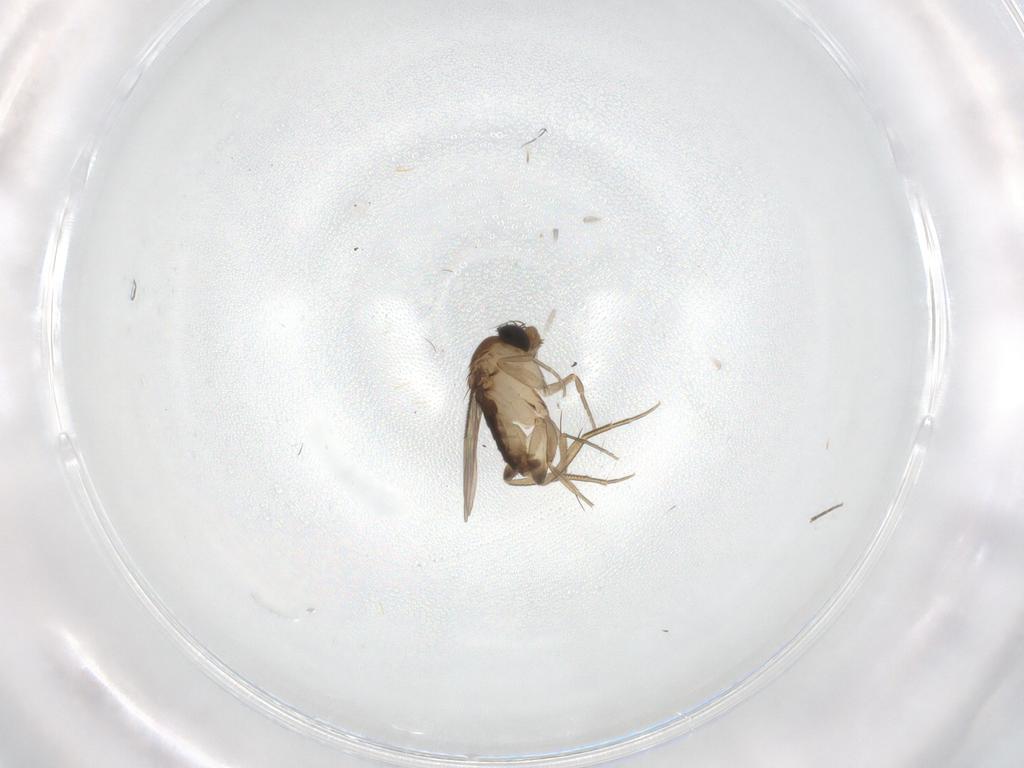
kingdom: Animalia
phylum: Arthropoda
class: Insecta
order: Diptera
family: Phoridae
